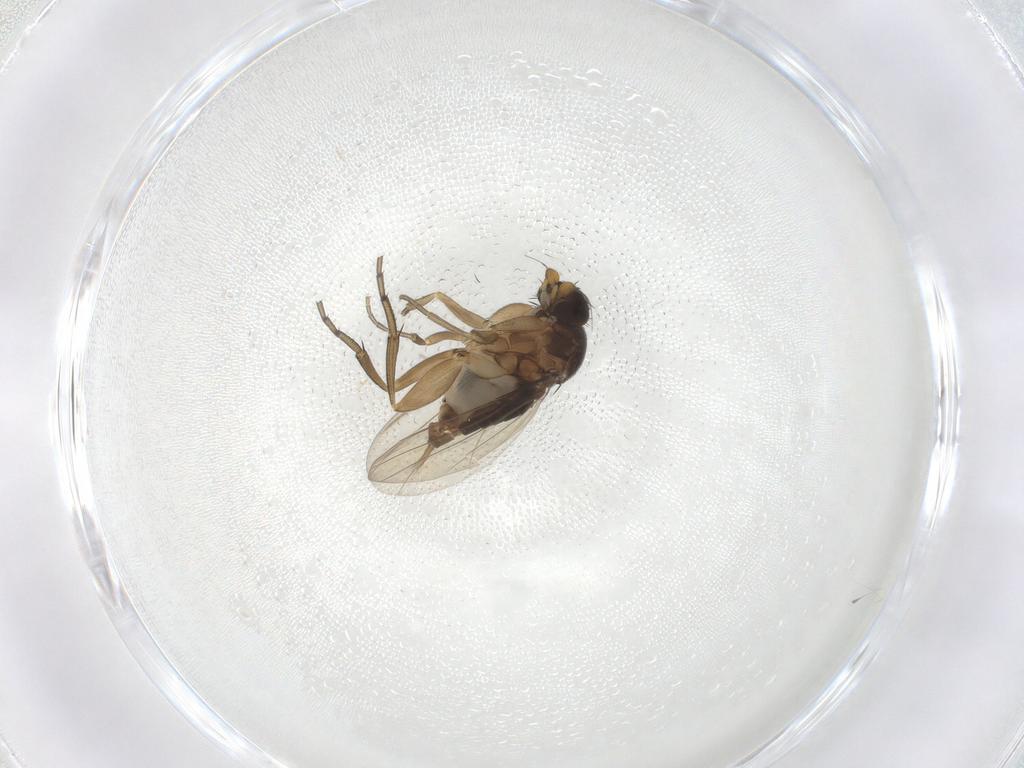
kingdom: Animalia
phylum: Arthropoda
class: Insecta
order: Diptera
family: Phoridae
